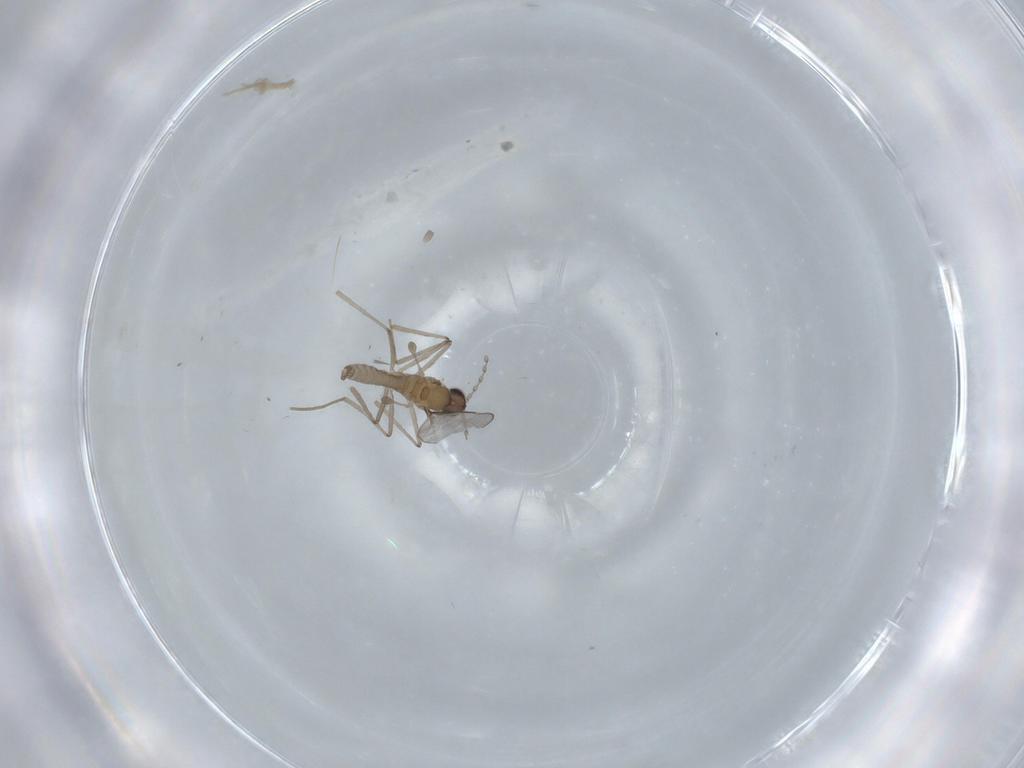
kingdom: Animalia
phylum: Arthropoda
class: Insecta
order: Diptera
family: Cecidomyiidae
